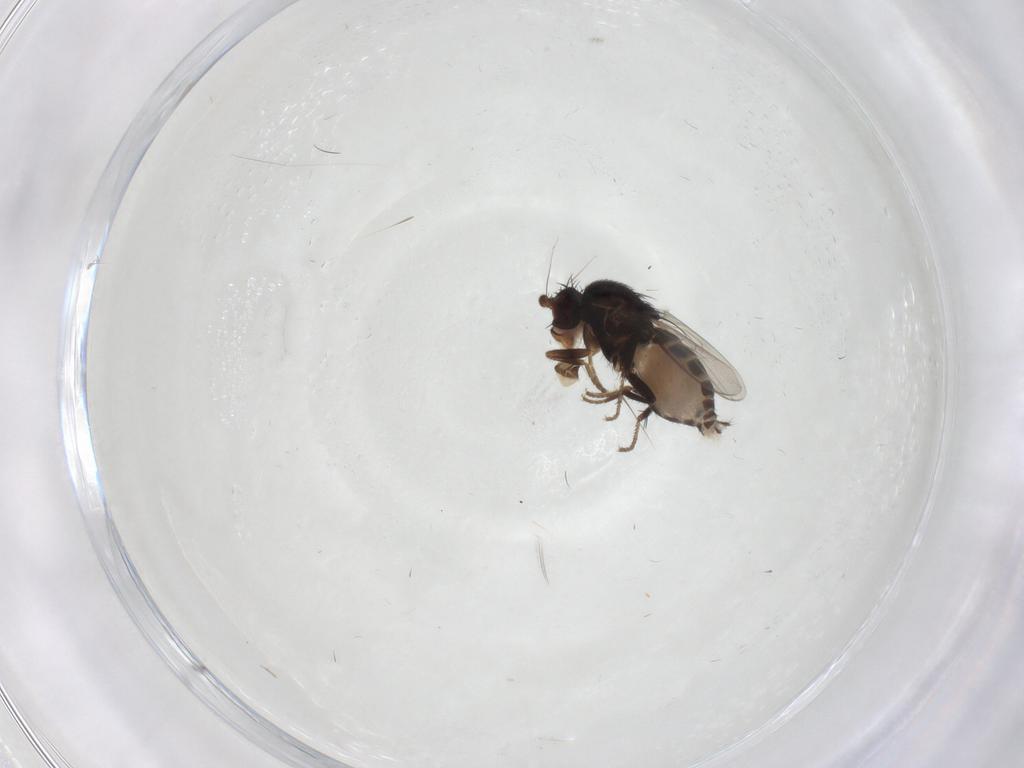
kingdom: Animalia
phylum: Arthropoda
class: Insecta
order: Diptera
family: Sphaeroceridae
